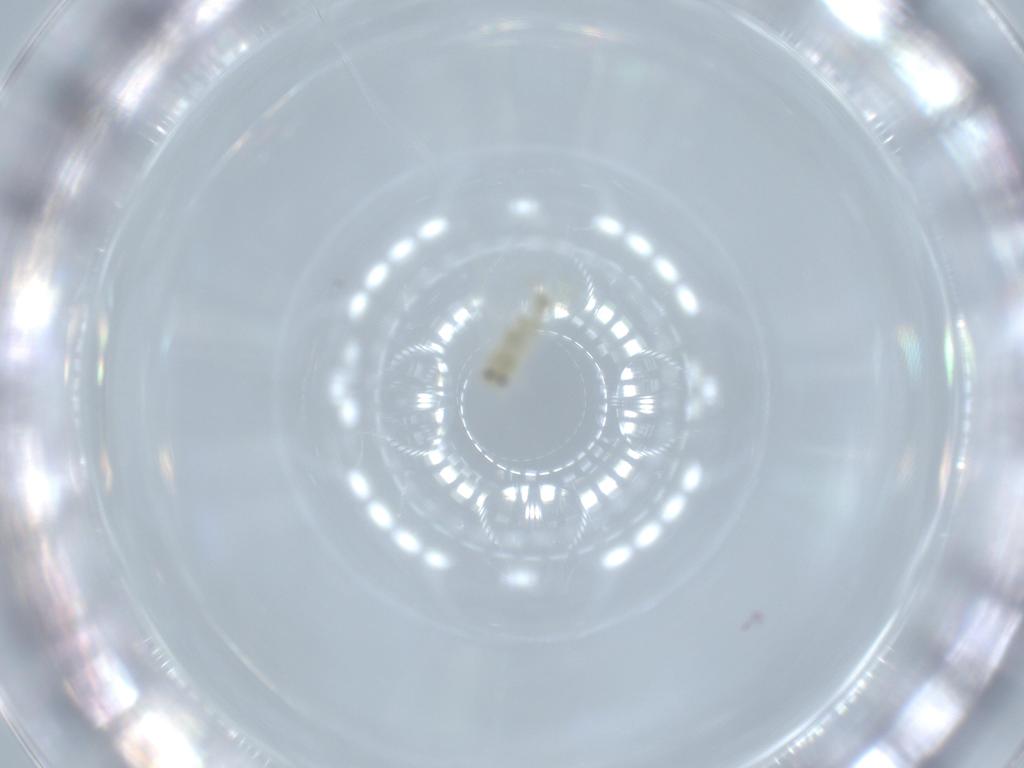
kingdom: Animalia
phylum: Arthropoda
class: Insecta
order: Hemiptera
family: Aleyrodidae
